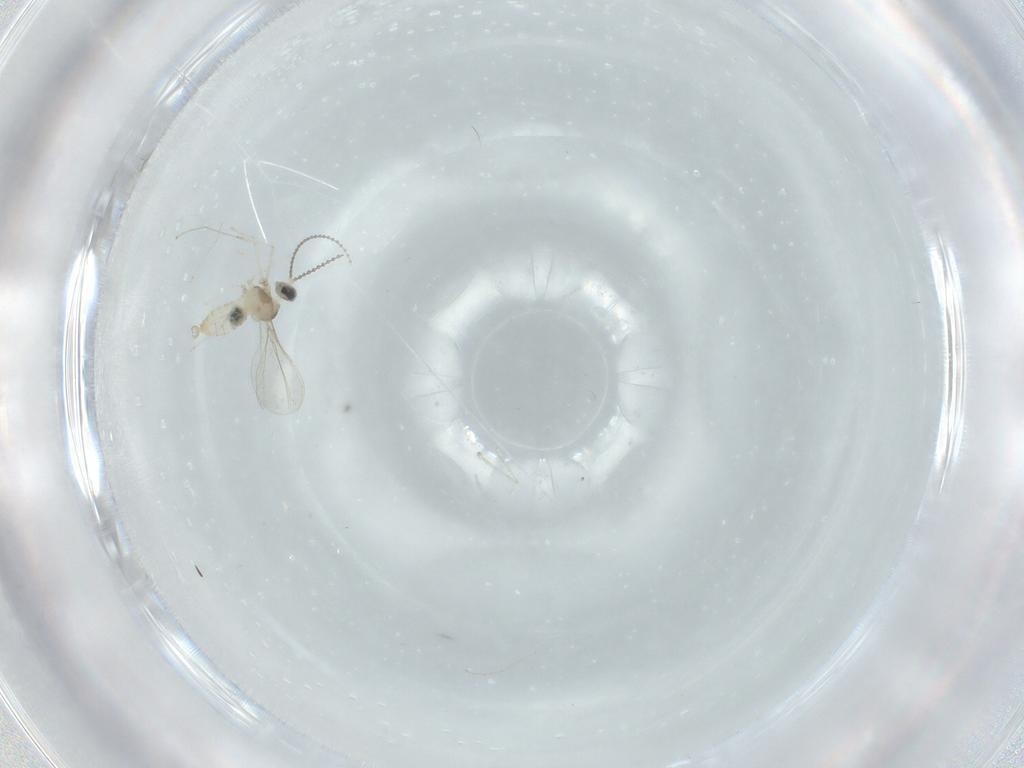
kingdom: Animalia
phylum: Arthropoda
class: Insecta
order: Diptera
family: Cecidomyiidae
